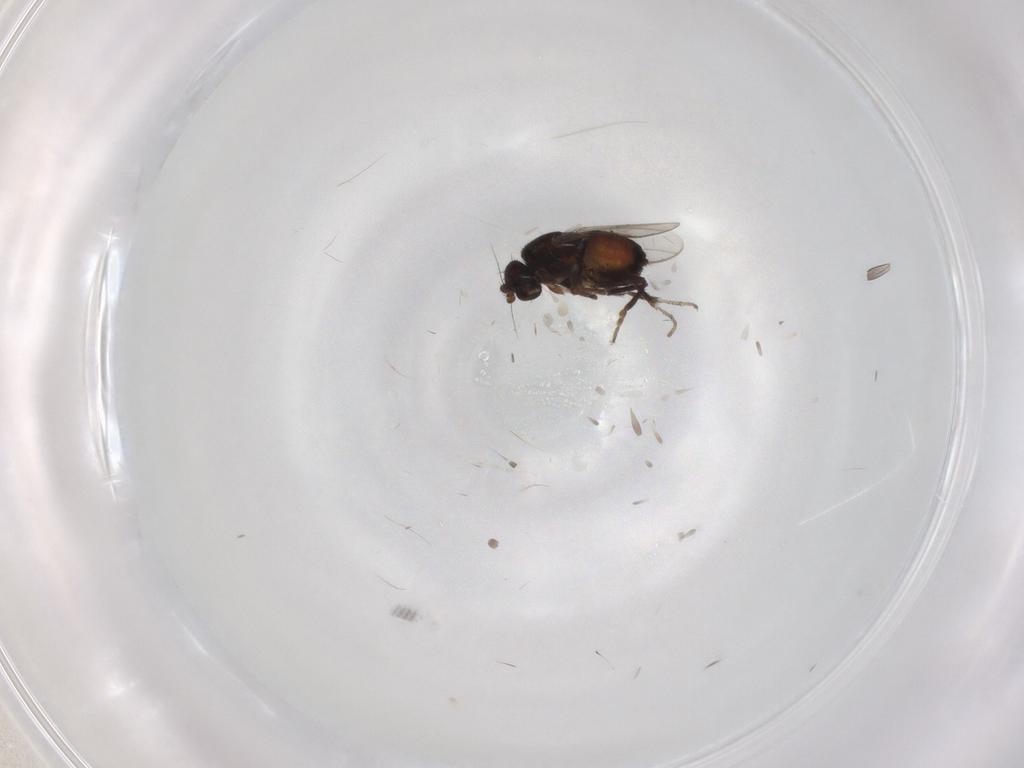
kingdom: Animalia
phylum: Arthropoda
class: Insecta
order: Diptera
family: Sphaeroceridae
